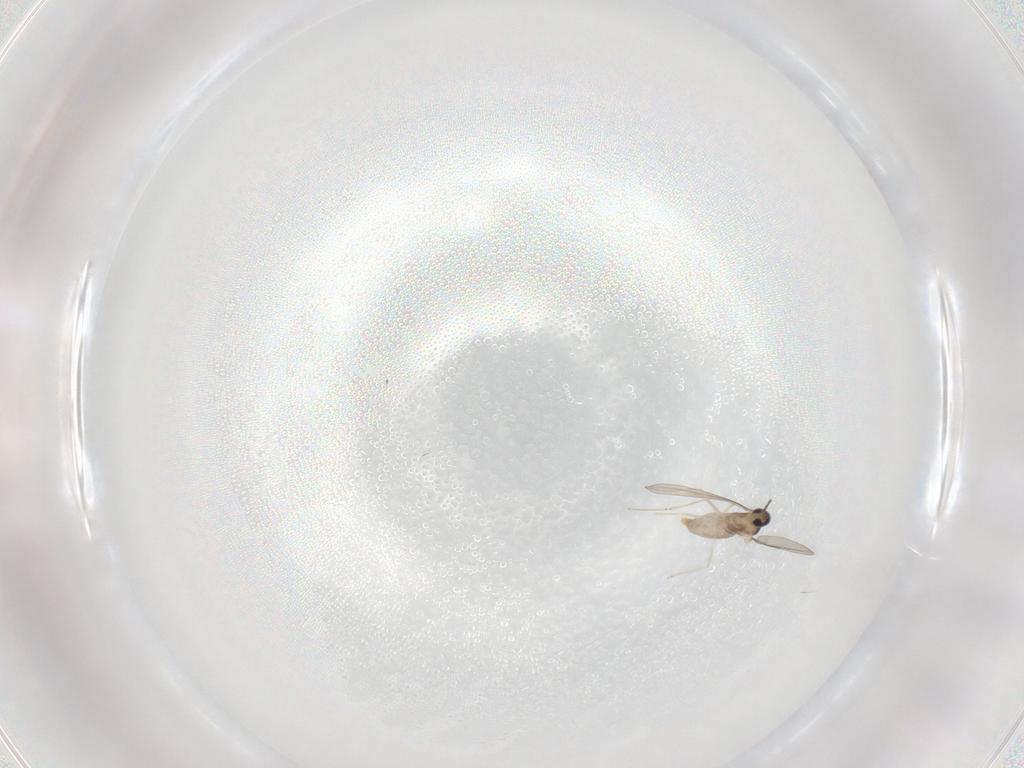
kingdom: Animalia
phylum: Arthropoda
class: Insecta
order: Diptera
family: Cecidomyiidae
